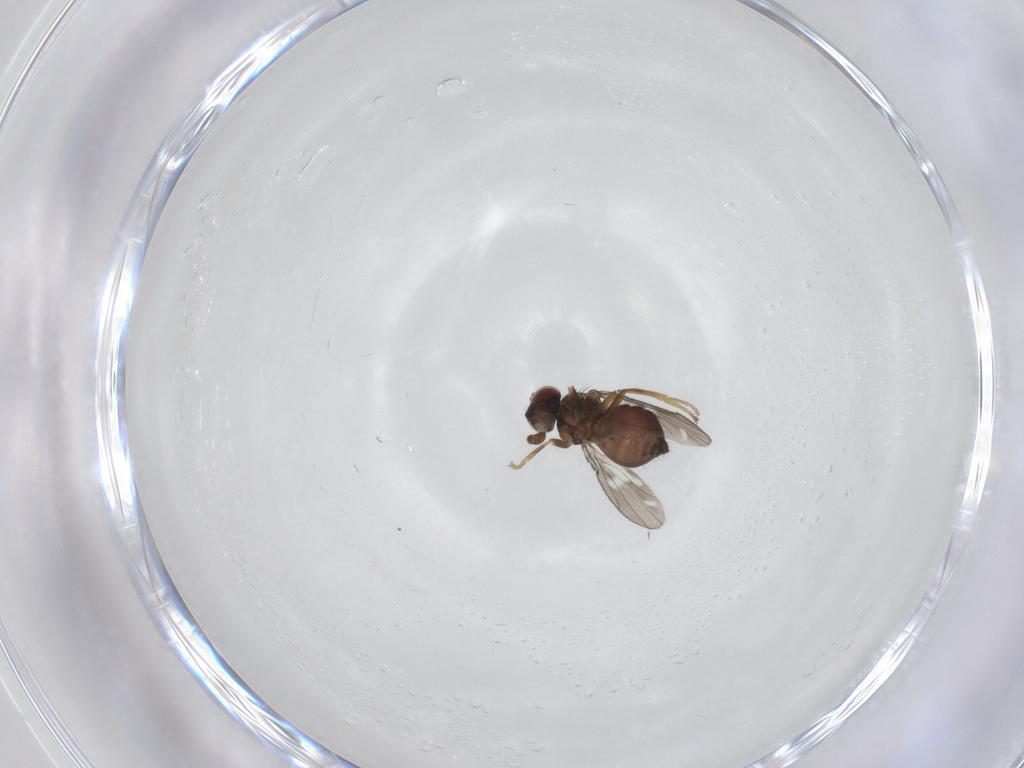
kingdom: Animalia
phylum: Arthropoda
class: Insecta
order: Diptera
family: Ephydridae
